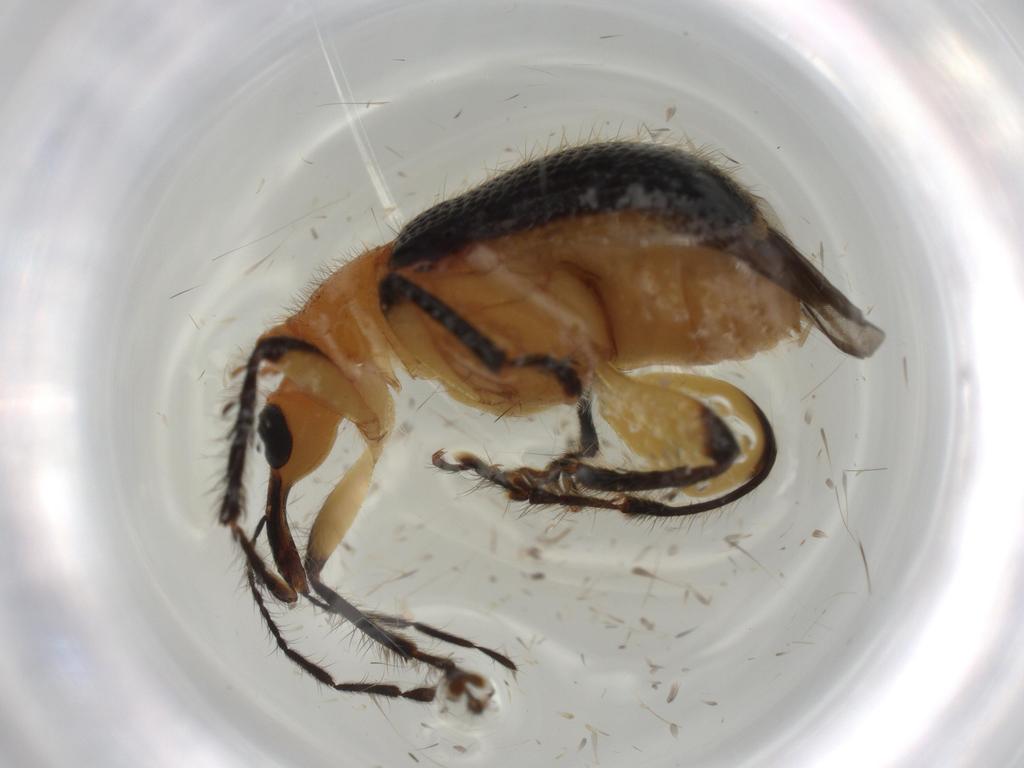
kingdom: Animalia
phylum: Arthropoda
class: Insecta
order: Coleoptera
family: Attelabidae
